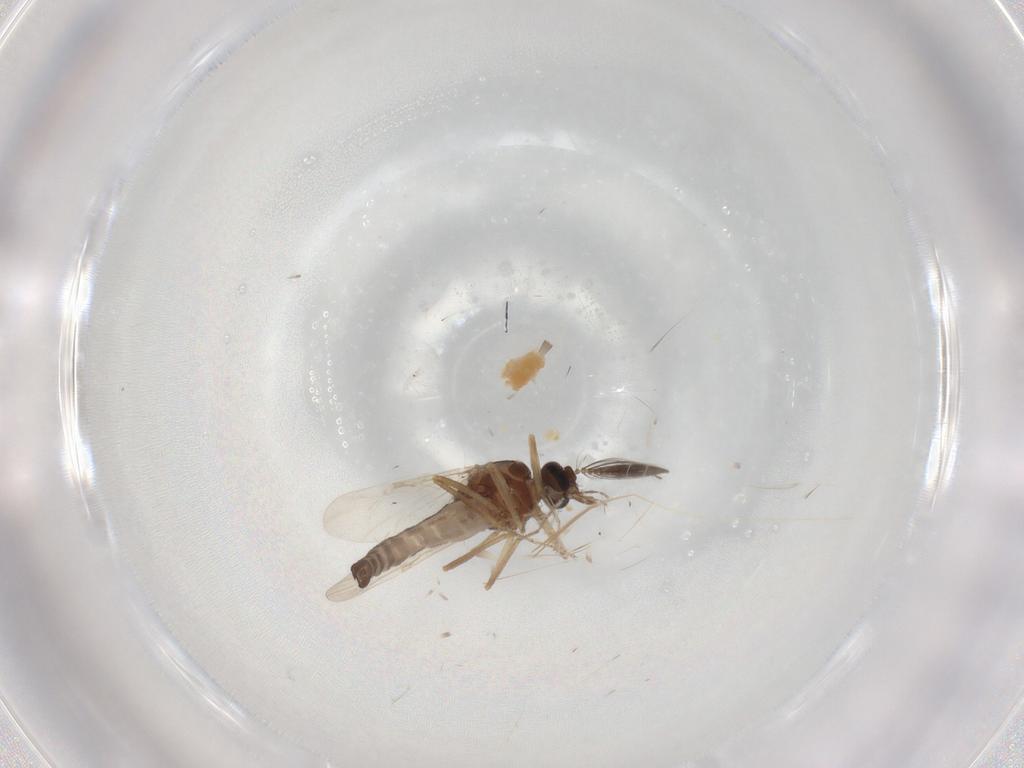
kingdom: Animalia
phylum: Arthropoda
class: Insecta
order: Diptera
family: Ceratopogonidae
